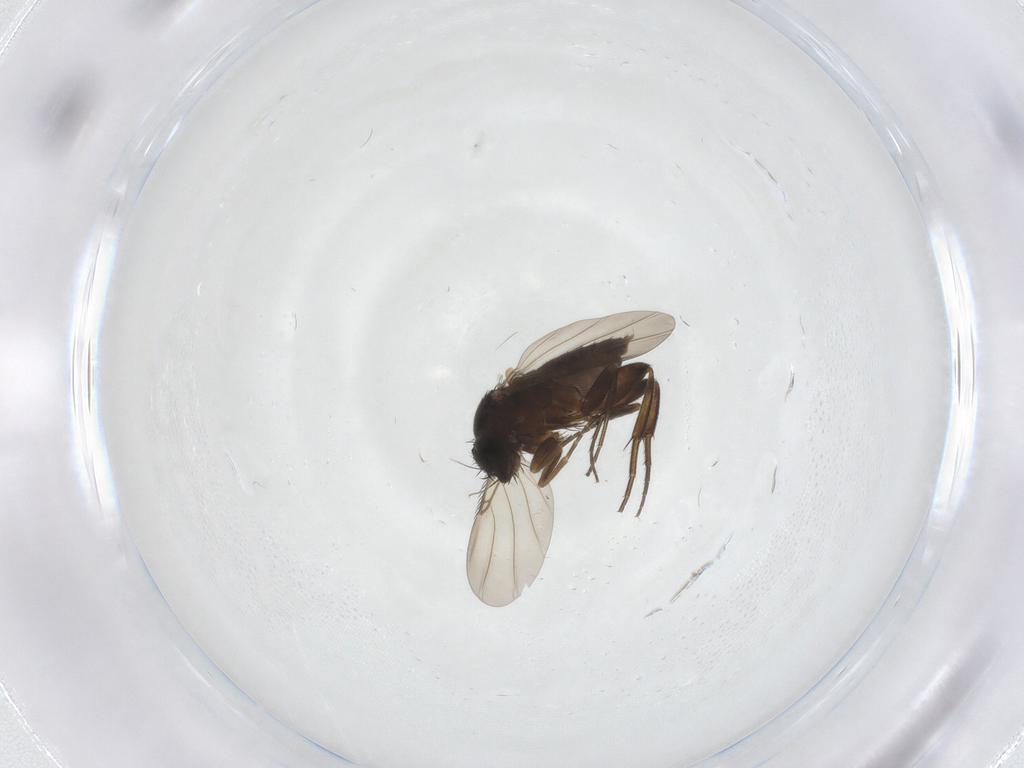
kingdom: Animalia
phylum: Arthropoda
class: Insecta
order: Diptera
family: Phoridae
